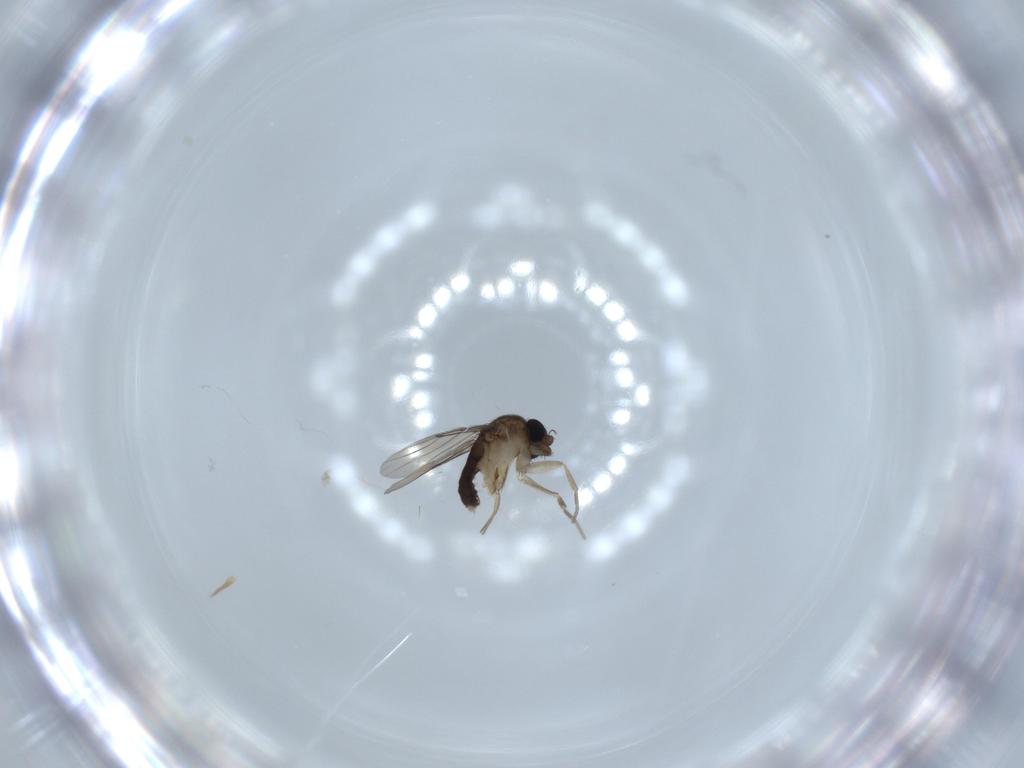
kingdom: Animalia
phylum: Arthropoda
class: Insecta
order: Diptera
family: Phoridae
